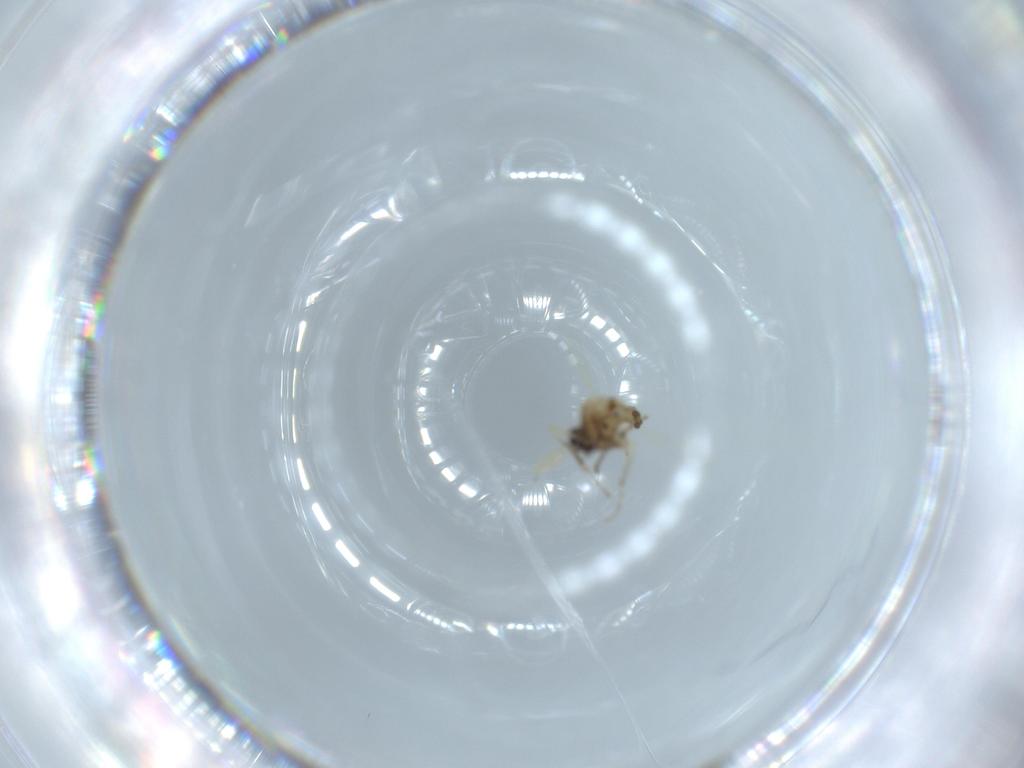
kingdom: Animalia
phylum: Arthropoda
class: Insecta
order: Diptera
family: Ceratopogonidae
